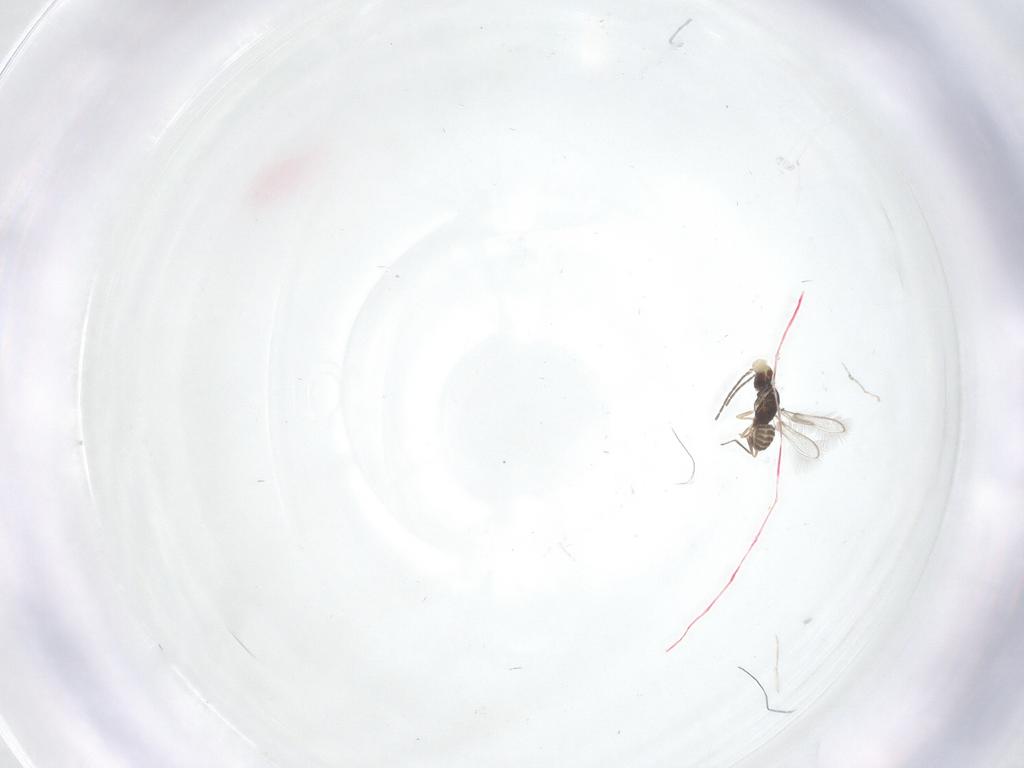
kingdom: Animalia
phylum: Arthropoda
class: Insecta
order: Hymenoptera
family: Mymaridae
